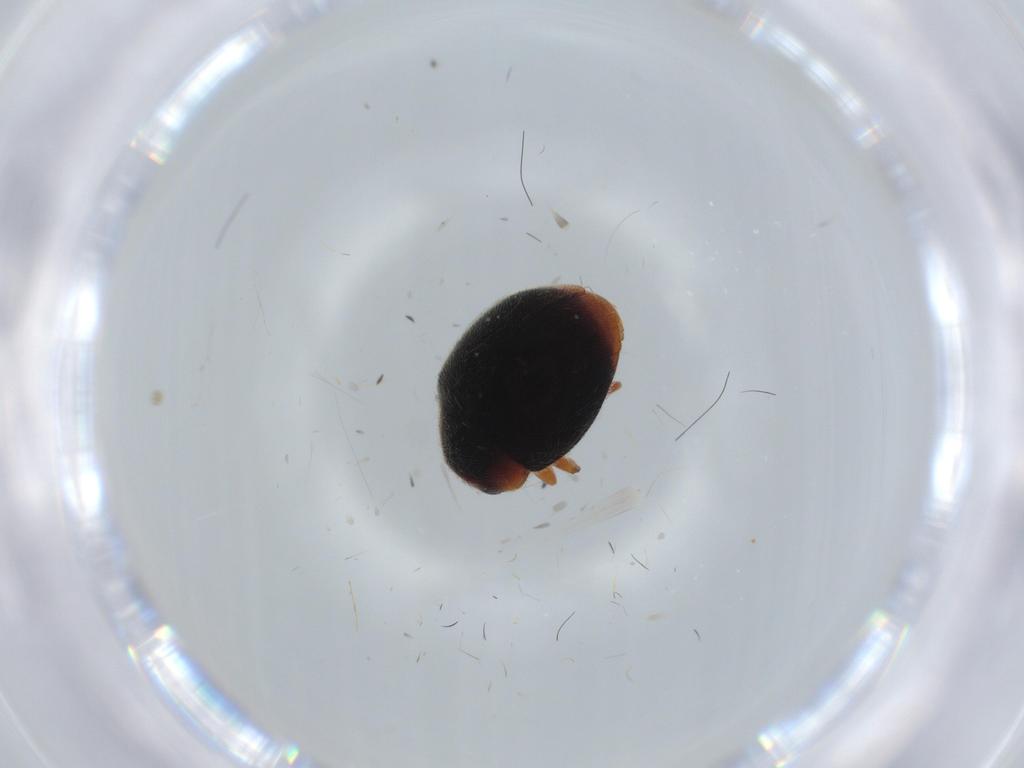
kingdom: Animalia
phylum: Arthropoda
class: Insecta
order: Coleoptera
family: Coccinellidae
